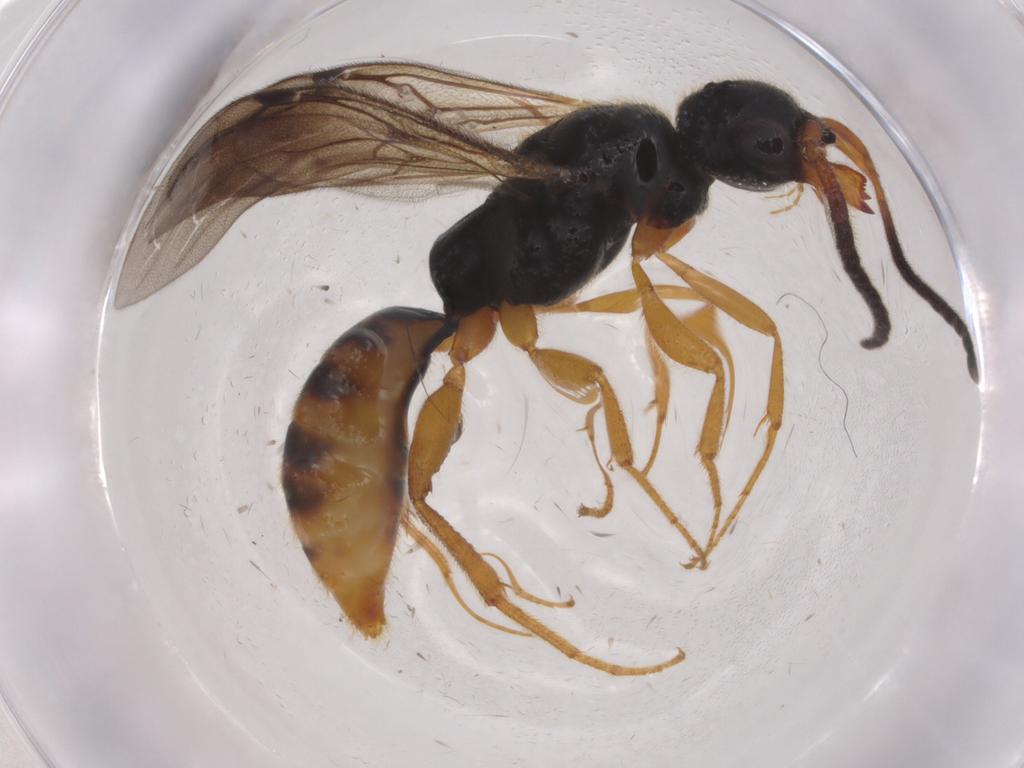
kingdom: Animalia
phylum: Arthropoda
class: Insecta
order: Hymenoptera
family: Bethylidae
